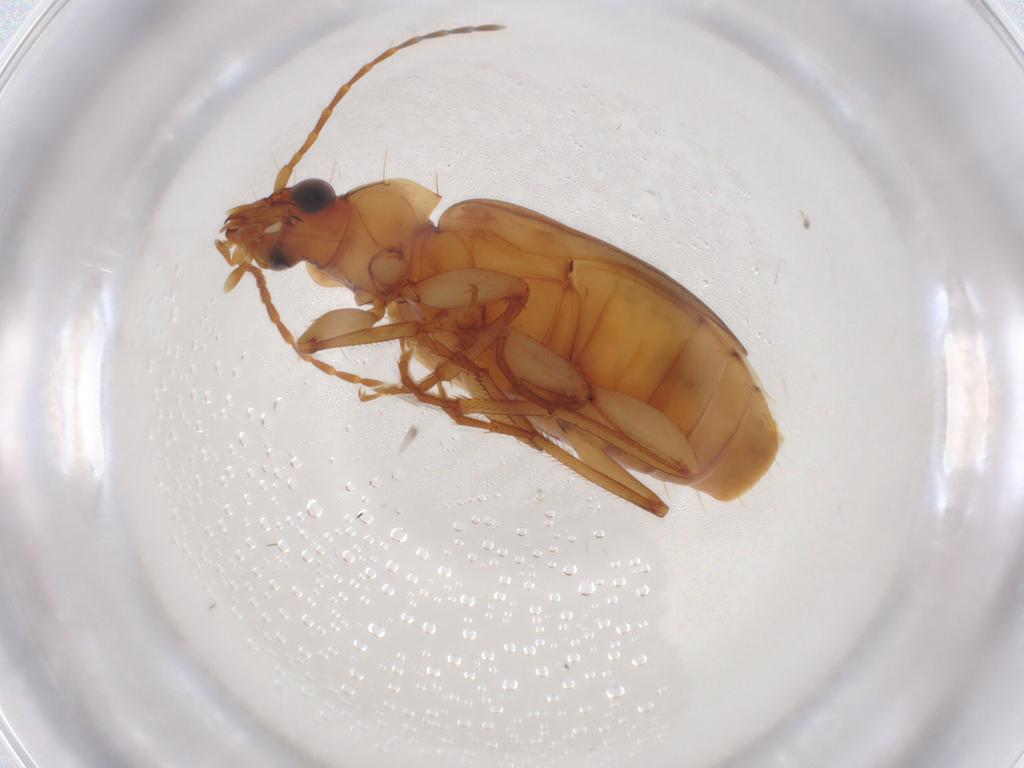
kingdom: Animalia
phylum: Arthropoda
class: Insecta
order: Coleoptera
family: Carabidae
